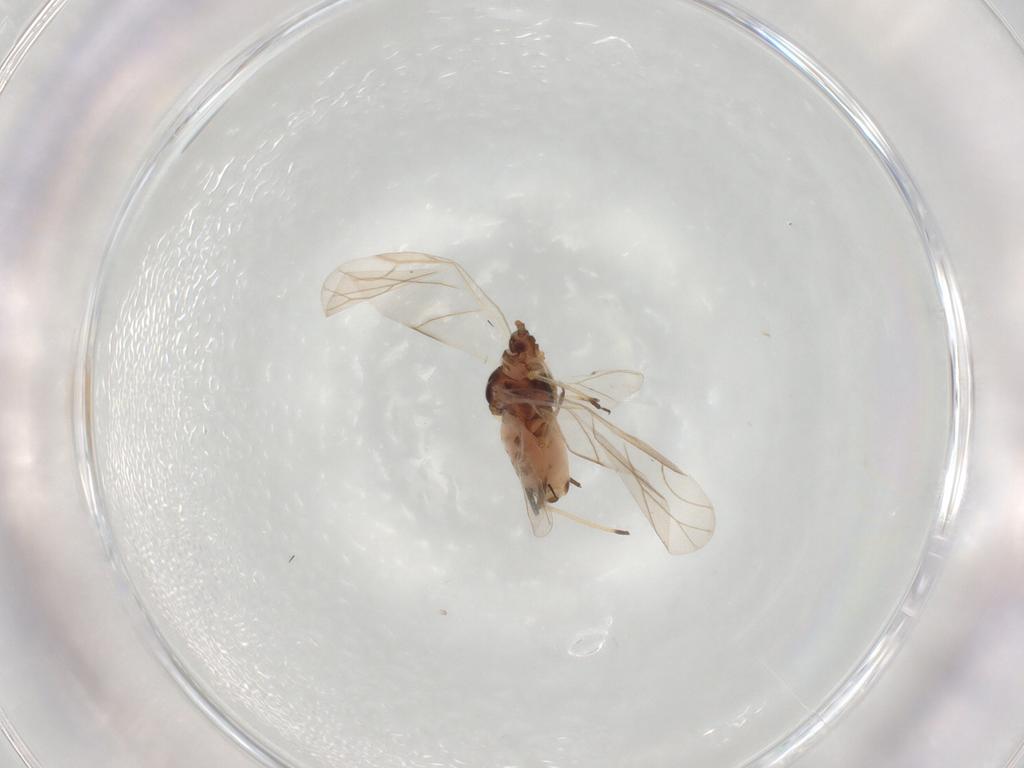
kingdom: Animalia
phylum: Arthropoda
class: Insecta
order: Hemiptera
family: Aphididae
